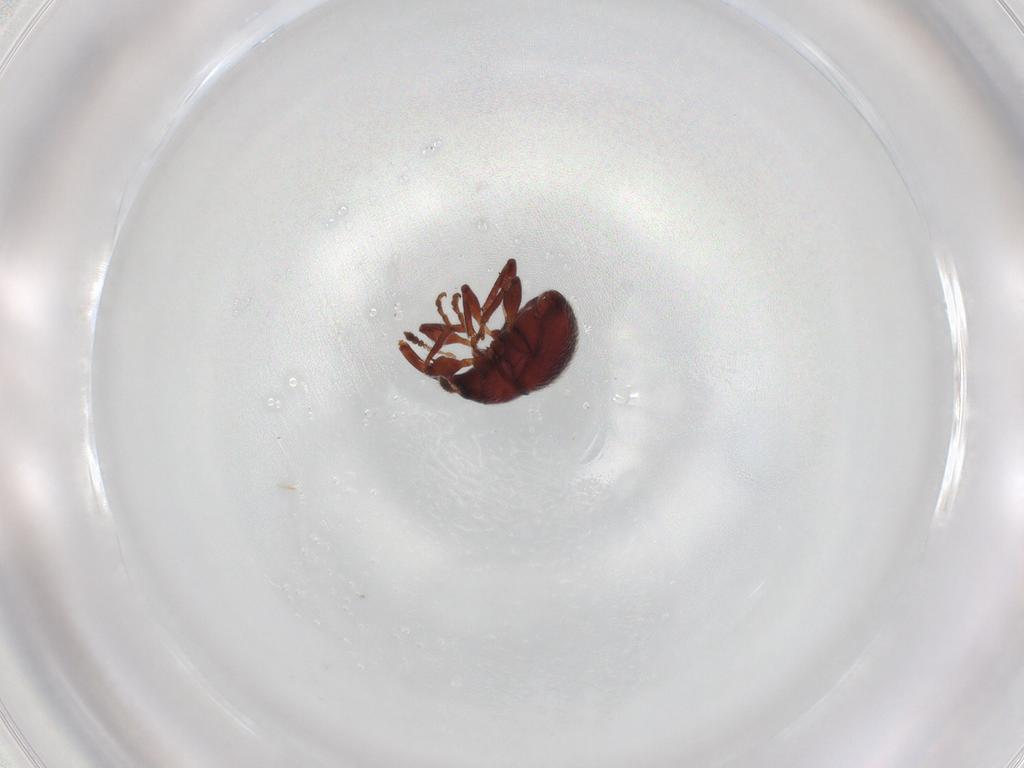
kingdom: Animalia
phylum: Arthropoda
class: Insecta
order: Coleoptera
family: Brentidae
